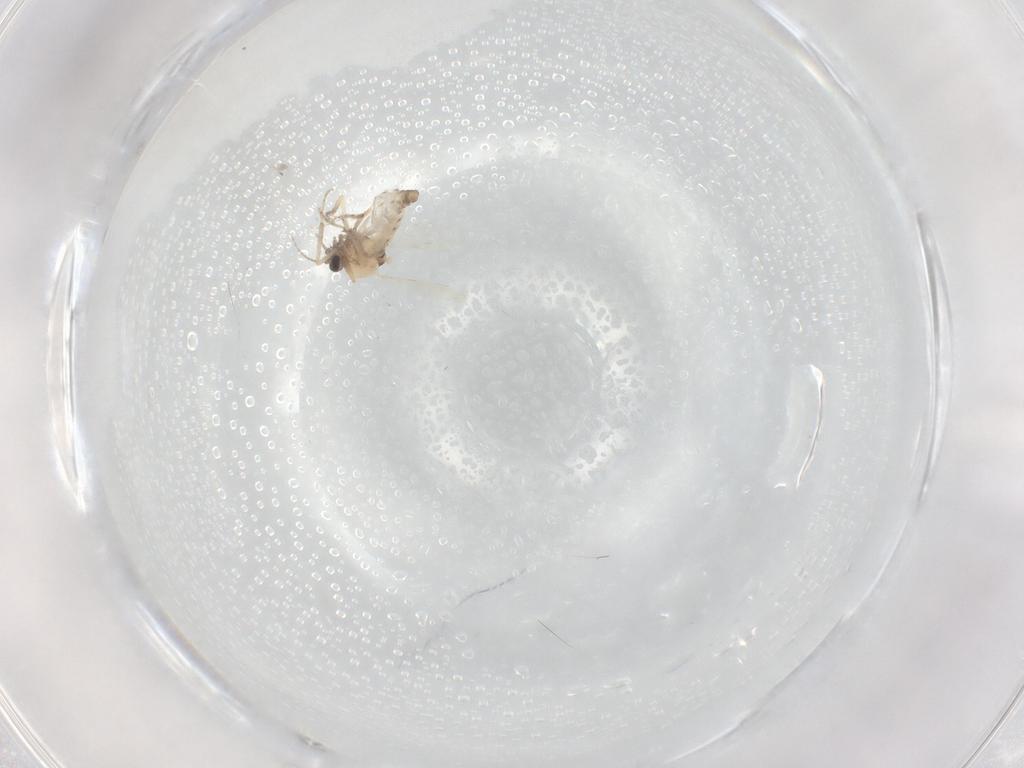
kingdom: Animalia
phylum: Arthropoda
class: Insecta
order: Diptera
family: Ceratopogonidae
